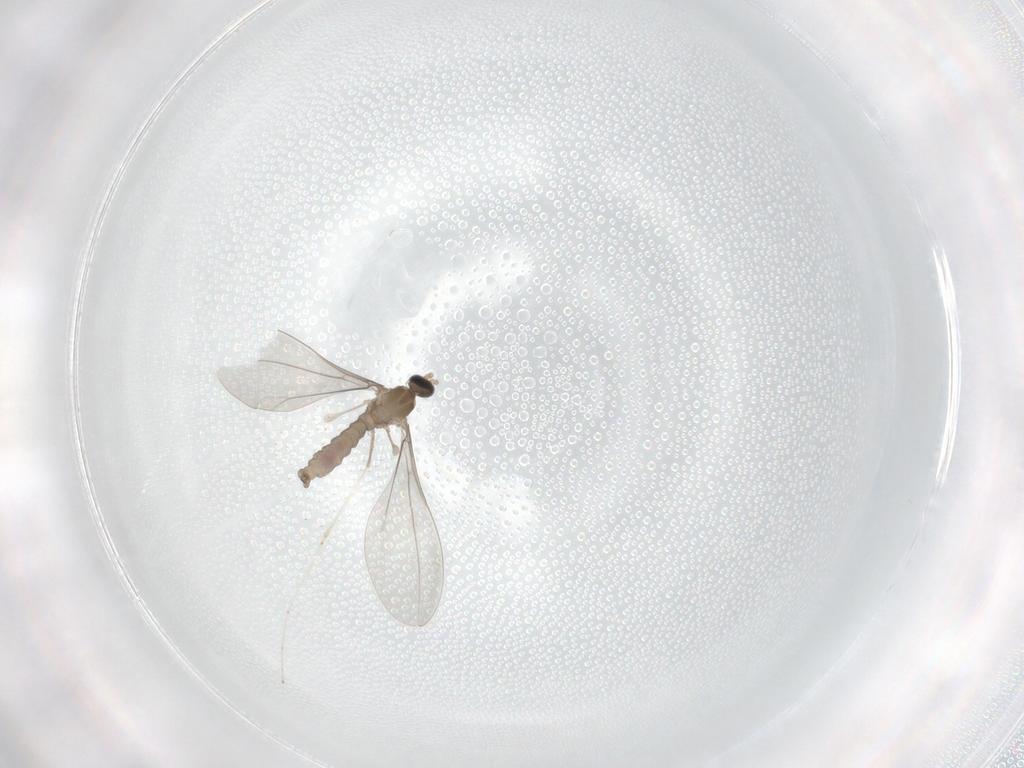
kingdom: Animalia
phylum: Arthropoda
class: Insecta
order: Diptera
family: Cecidomyiidae
